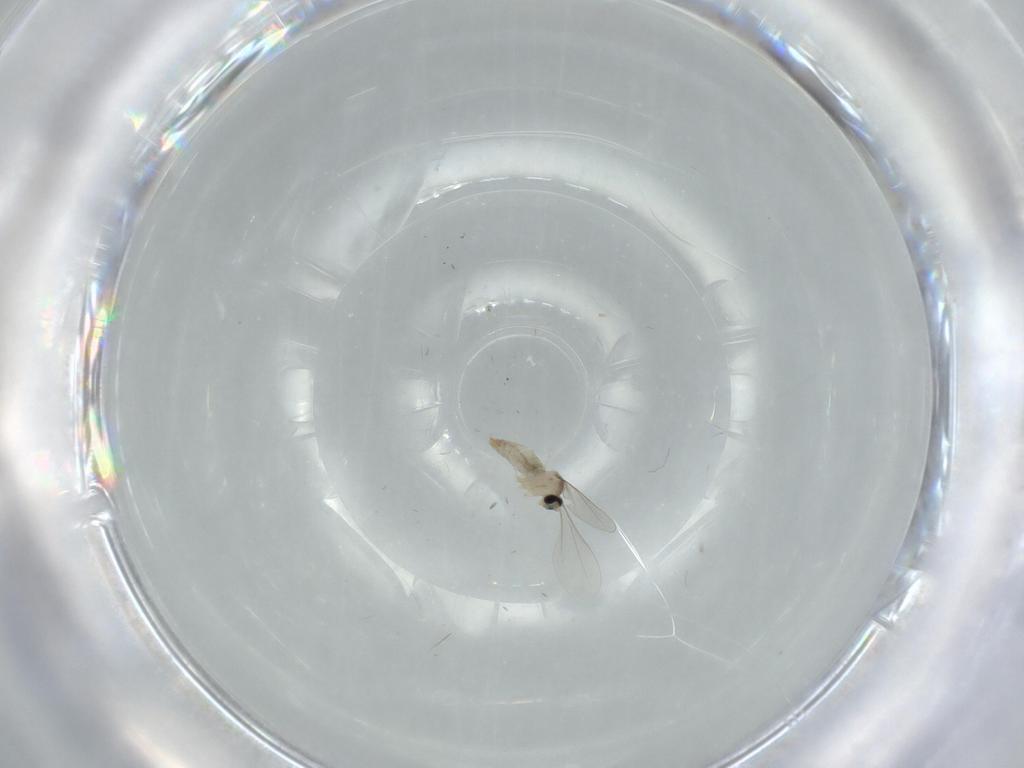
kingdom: Animalia
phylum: Arthropoda
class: Insecta
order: Diptera
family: Cecidomyiidae
